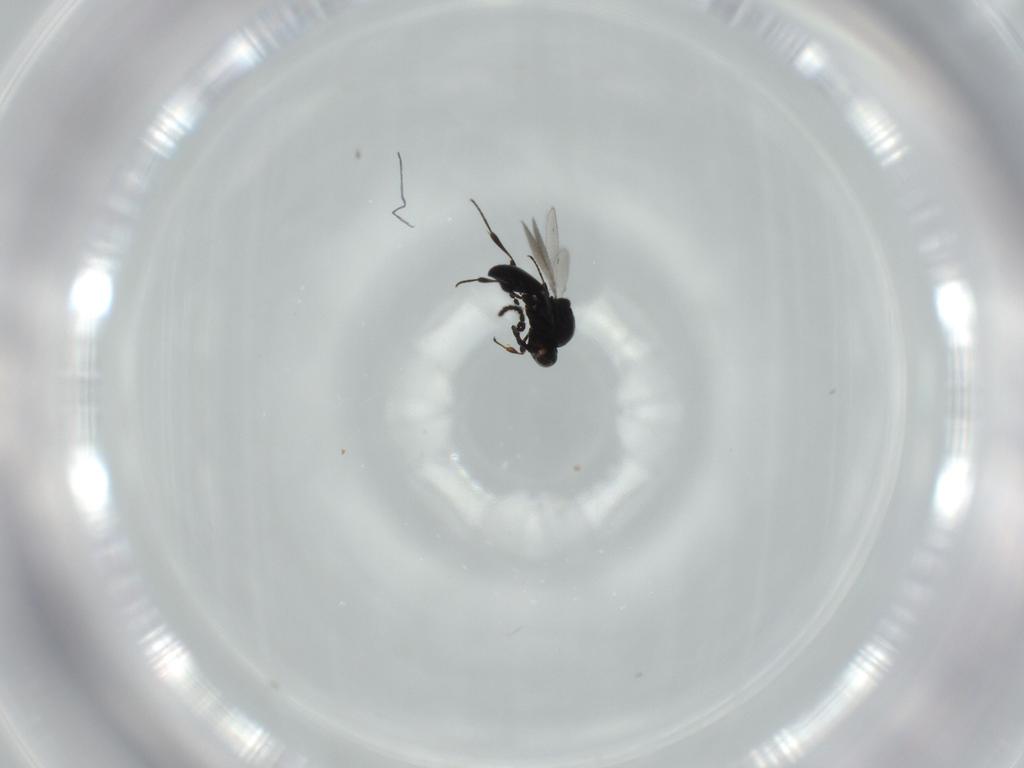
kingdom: Animalia
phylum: Arthropoda
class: Insecta
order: Hymenoptera
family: Platygastridae
